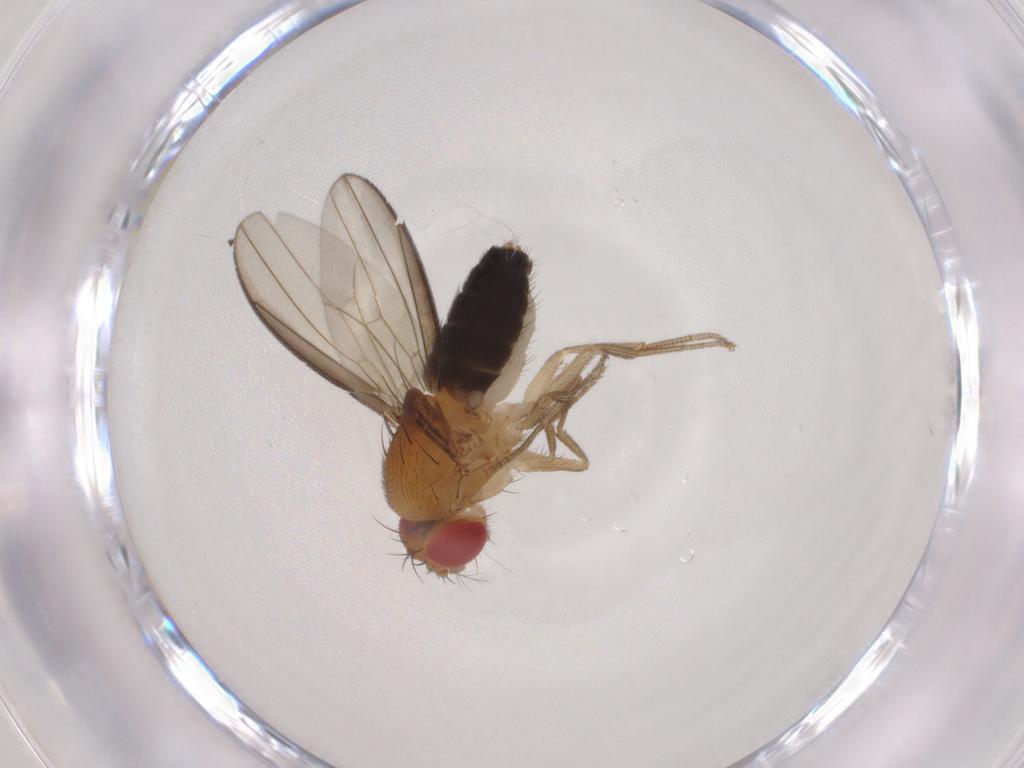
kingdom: Animalia
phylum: Arthropoda
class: Insecta
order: Diptera
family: Drosophilidae
